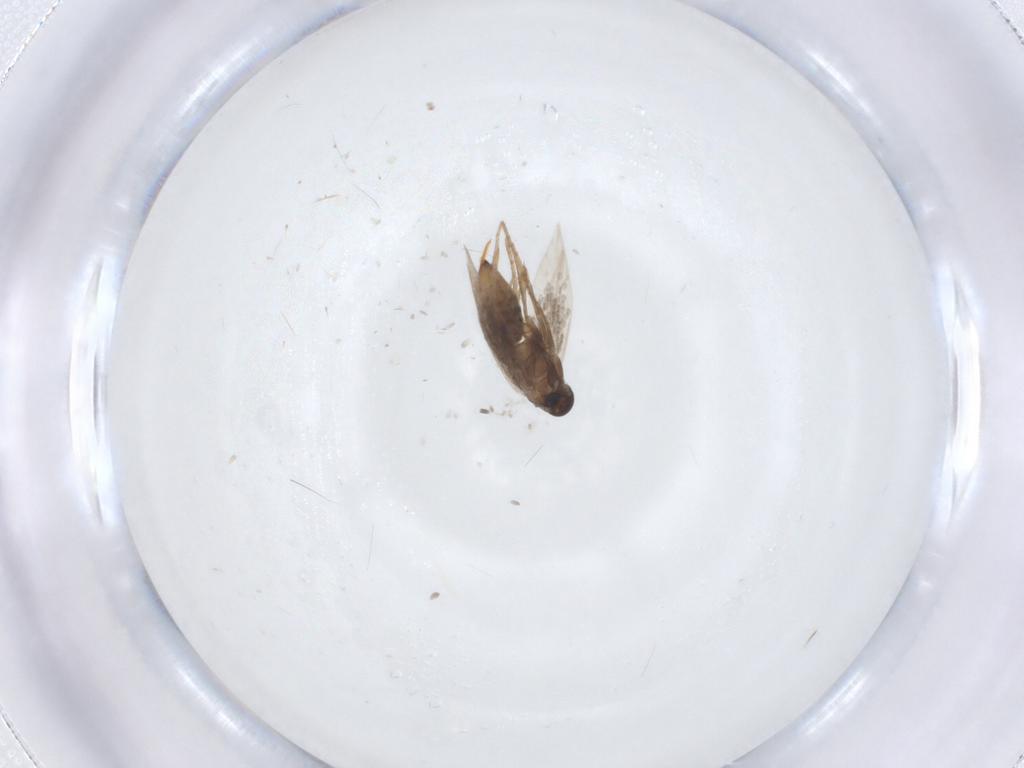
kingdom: Animalia
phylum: Arthropoda
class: Insecta
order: Lepidoptera
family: Heliozelidae
